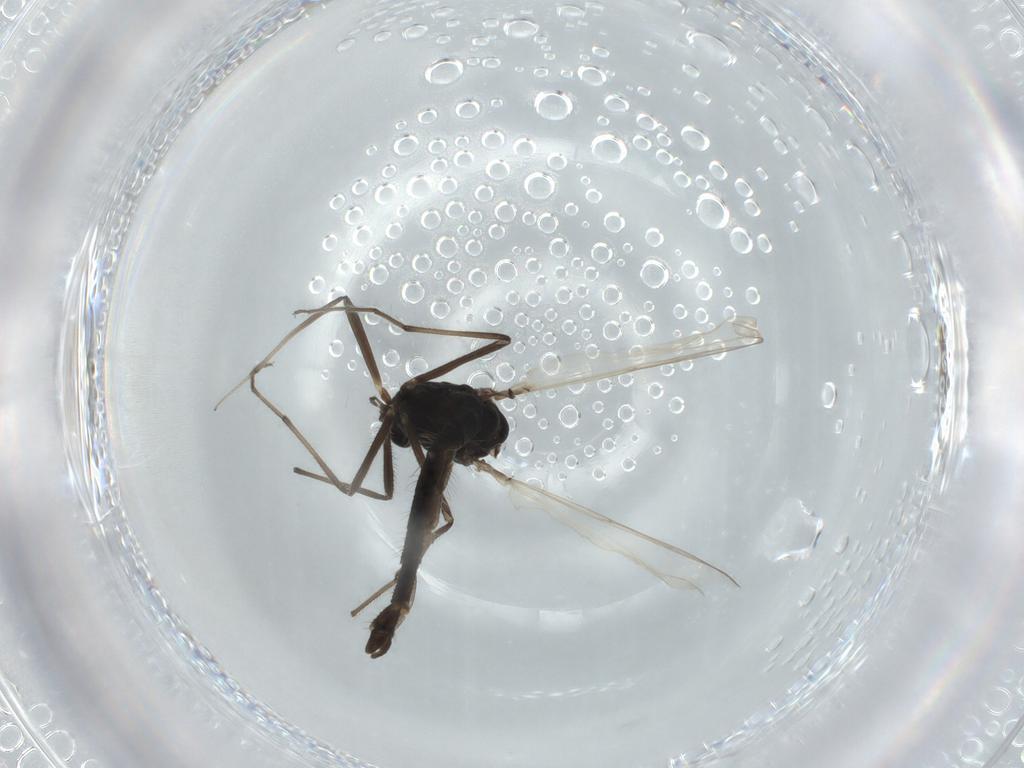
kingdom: Animalia
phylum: Arthropoda
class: Insecta
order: Diptera
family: Chironomidae
